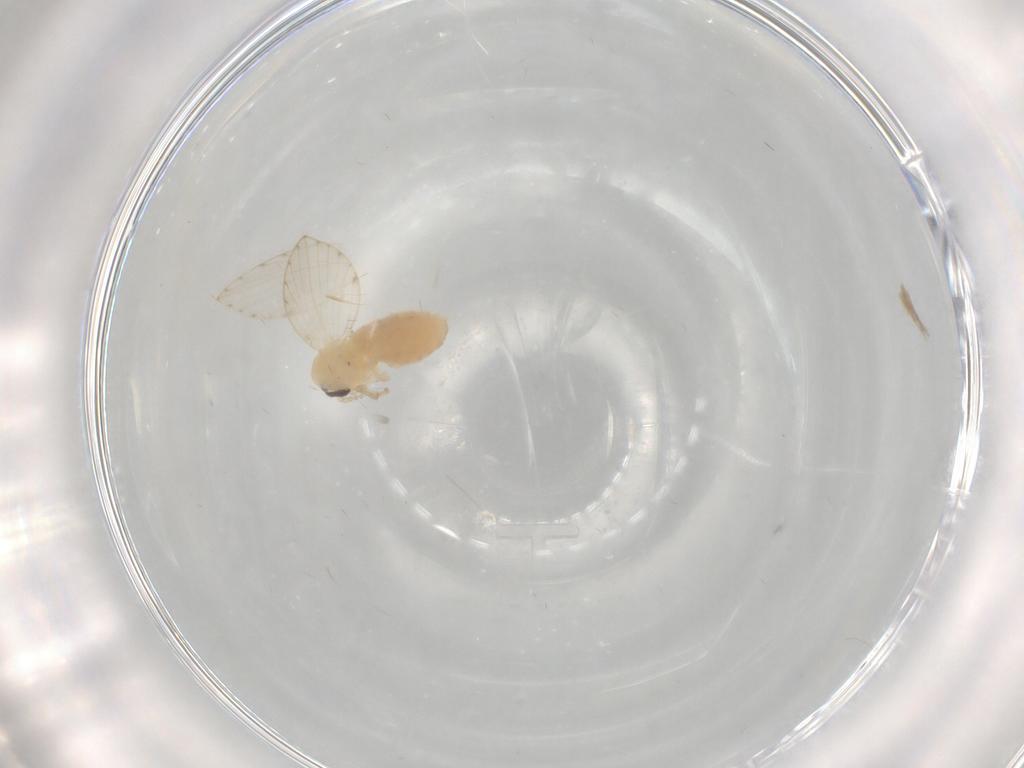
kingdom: Animalia
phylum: Arthropoda
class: Insecta
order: Diptera
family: Psychodidae
